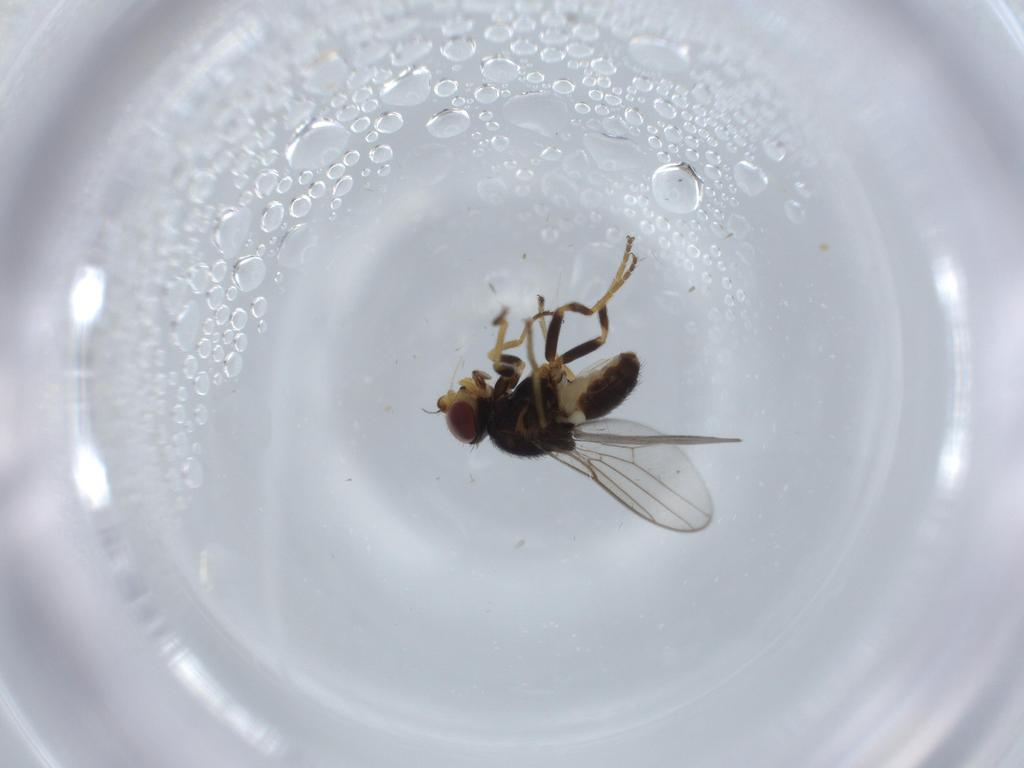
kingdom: Animalia
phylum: Arthropoda
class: Insecta
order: Diptera
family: Chloropidae
